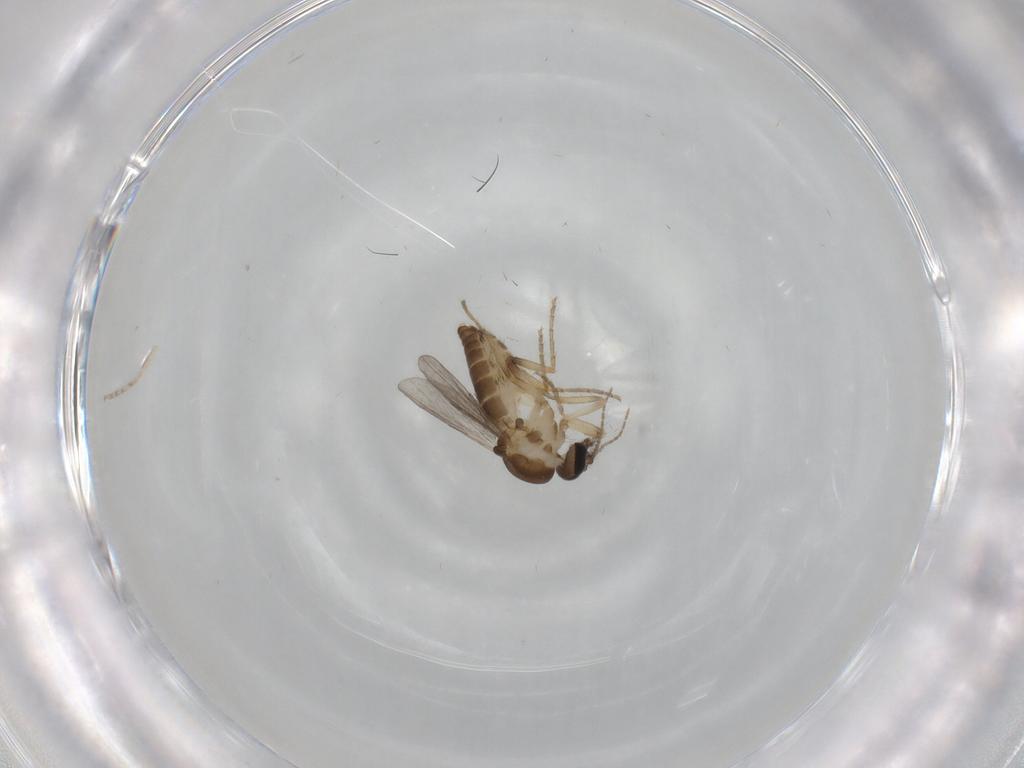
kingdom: Animalia
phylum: Arthropoda
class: Insecta
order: Diptera
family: Ceratopogonidae
